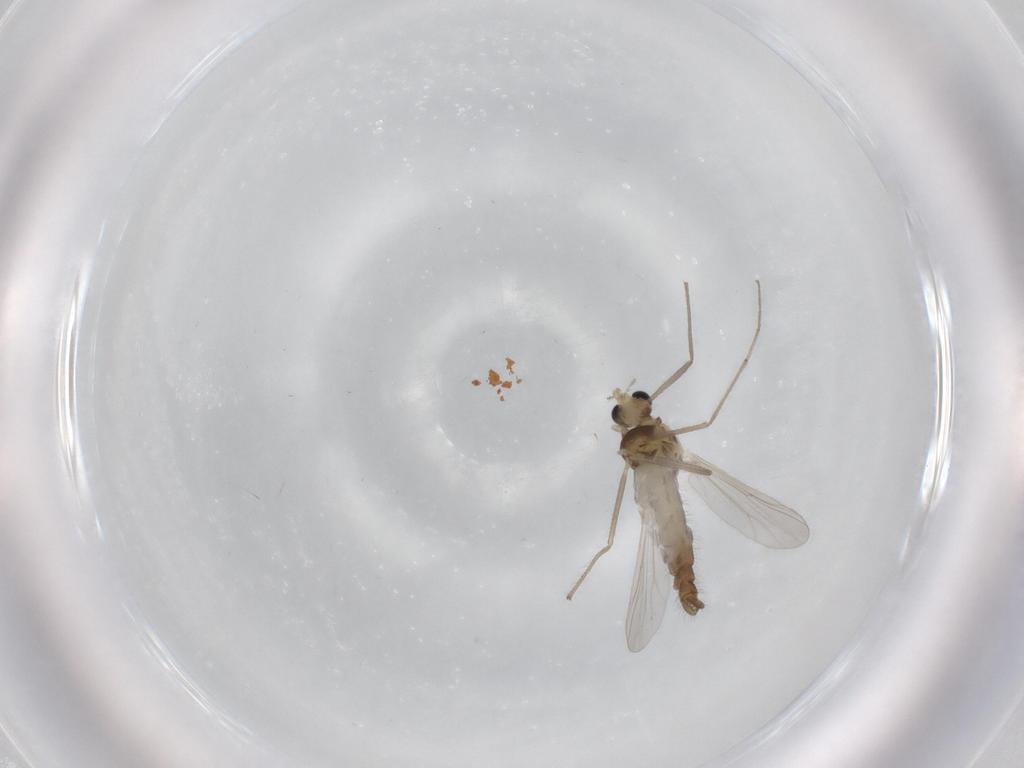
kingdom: Animalia
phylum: Arthropoda
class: Insecta
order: Diptera
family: Chironomidae
